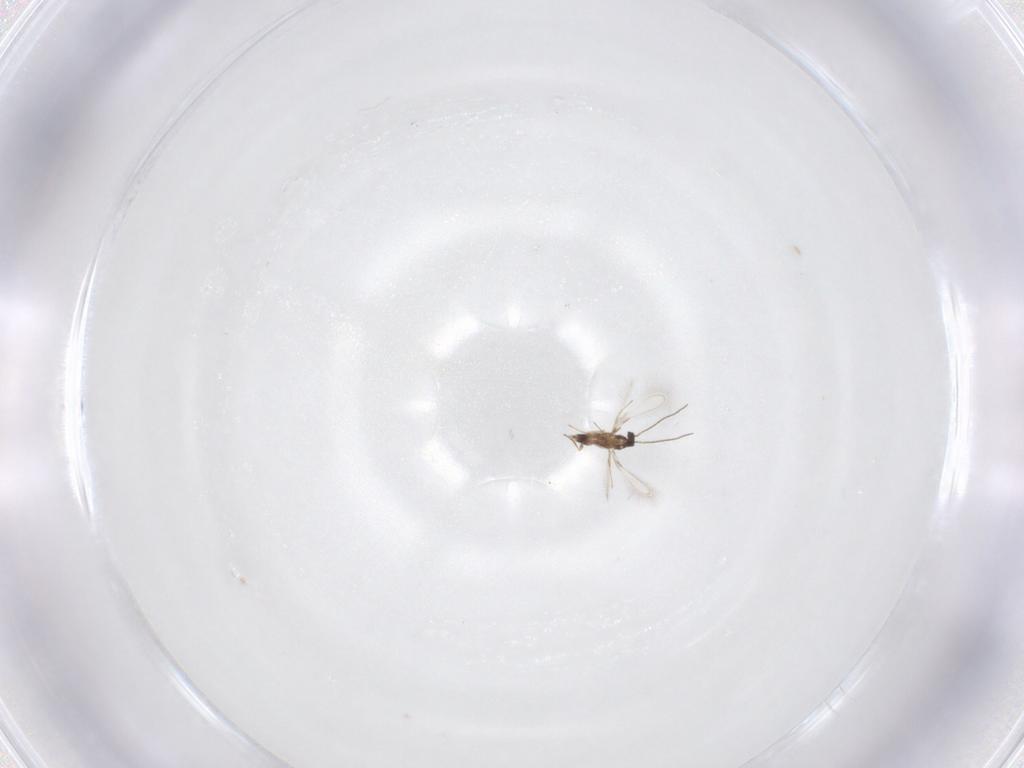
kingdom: Animalia
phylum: Arthropoda
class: Insecta
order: Hymenoptera
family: Mymaridae
